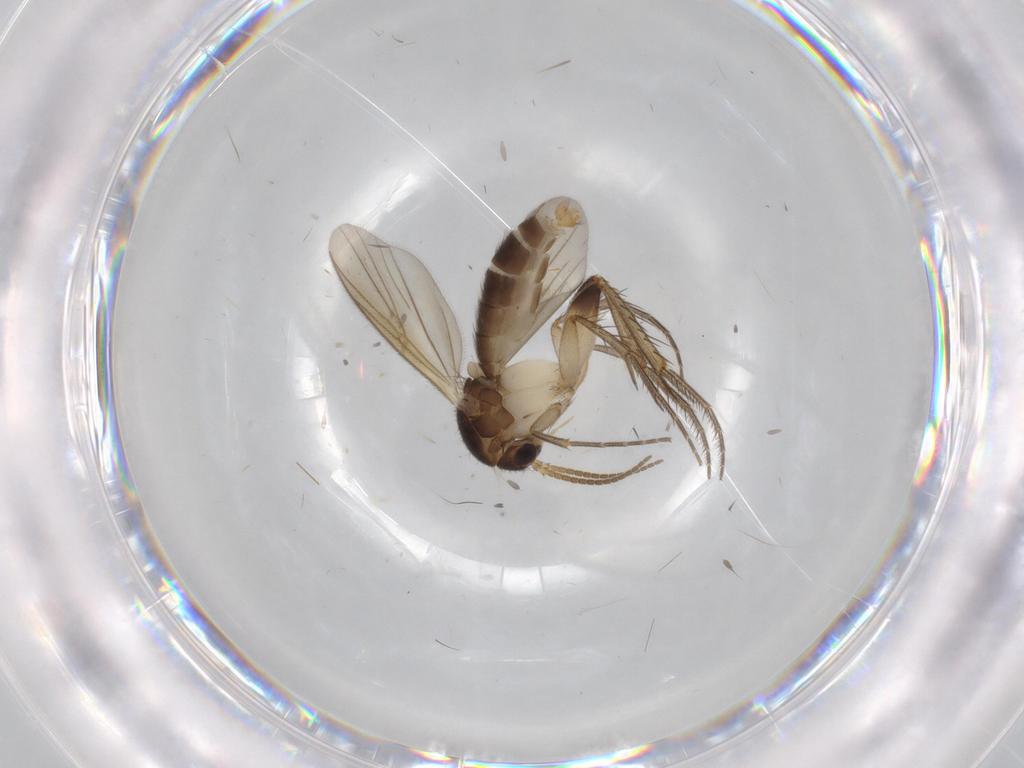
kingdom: Animalia
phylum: Arthropoda
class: Insecta
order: Diptera
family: Mycetophilidae
